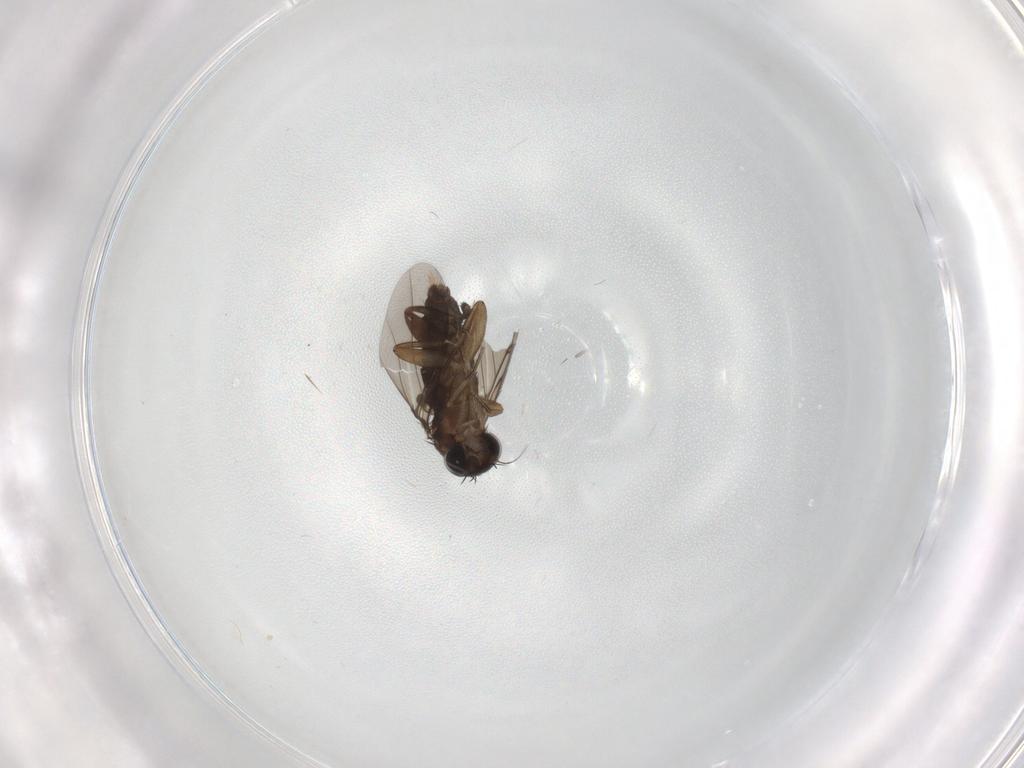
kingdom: Animalia
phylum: Arthropoda
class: Insecta
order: Diptera
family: Phoridae
